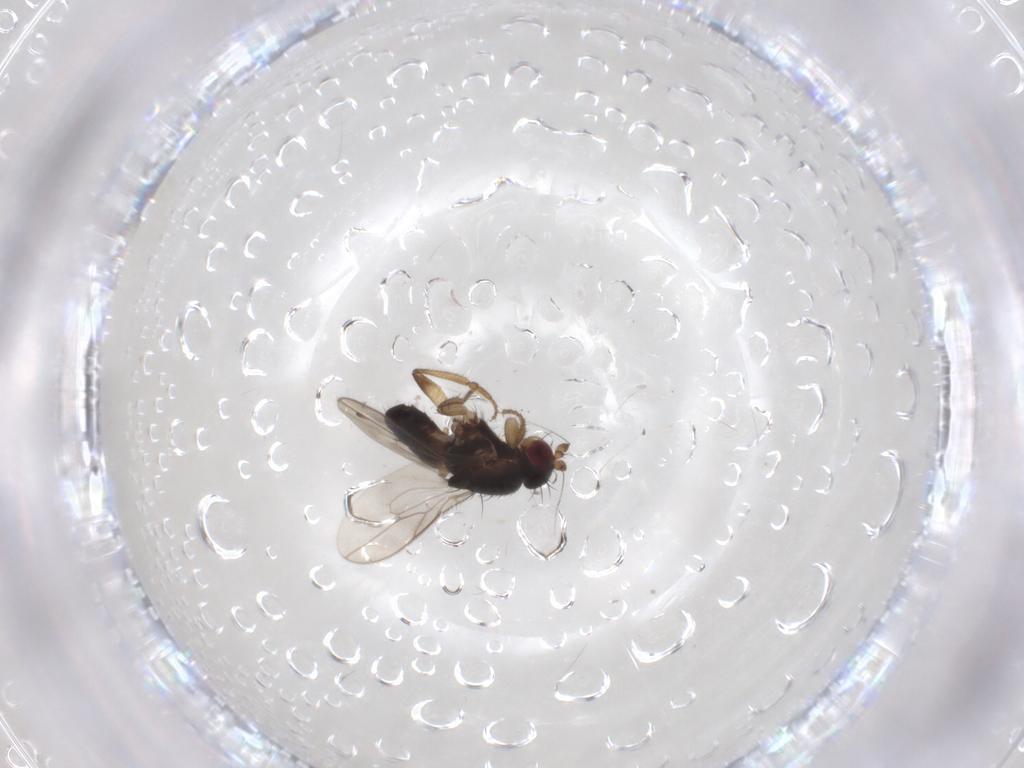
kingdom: Animalia
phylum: Arthropoda
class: Insecta
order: Diptera
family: Sphaeroceridae
